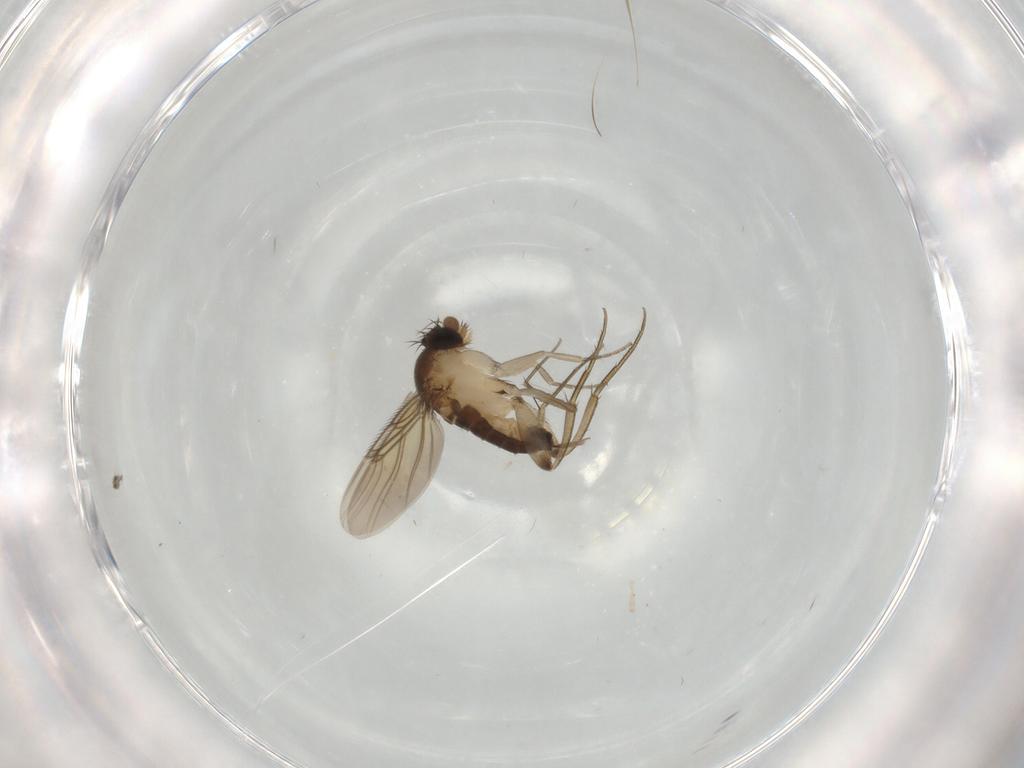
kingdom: Animalia
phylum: Arthropoda
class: Insecta
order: Diptera
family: Phoridae
